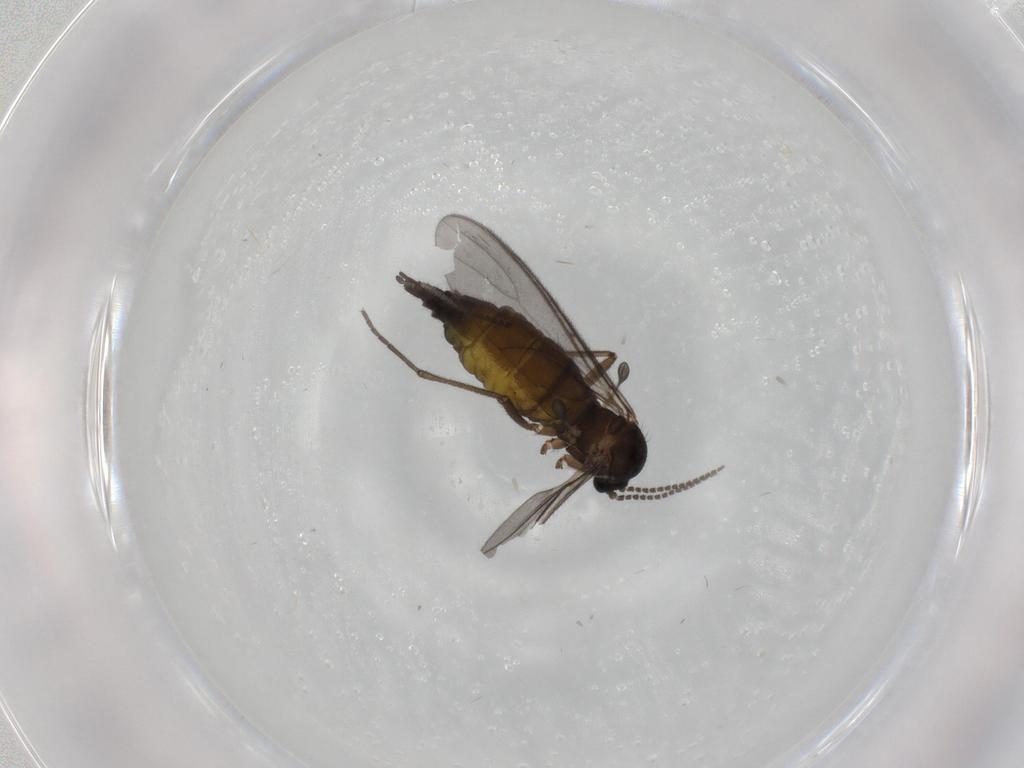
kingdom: Animalia
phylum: Arthropoda
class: Insecta
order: Diptera
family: Sciaridae
